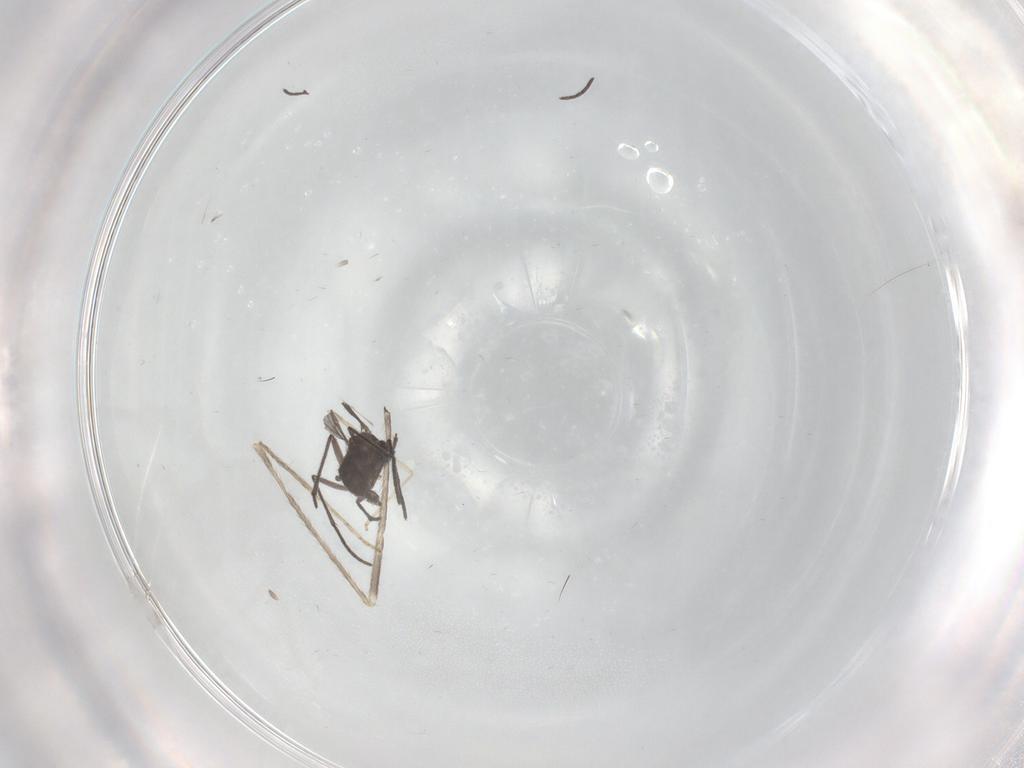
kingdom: Animalia
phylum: Arthropoda
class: Insecta
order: Diptera
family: Sciaridae
